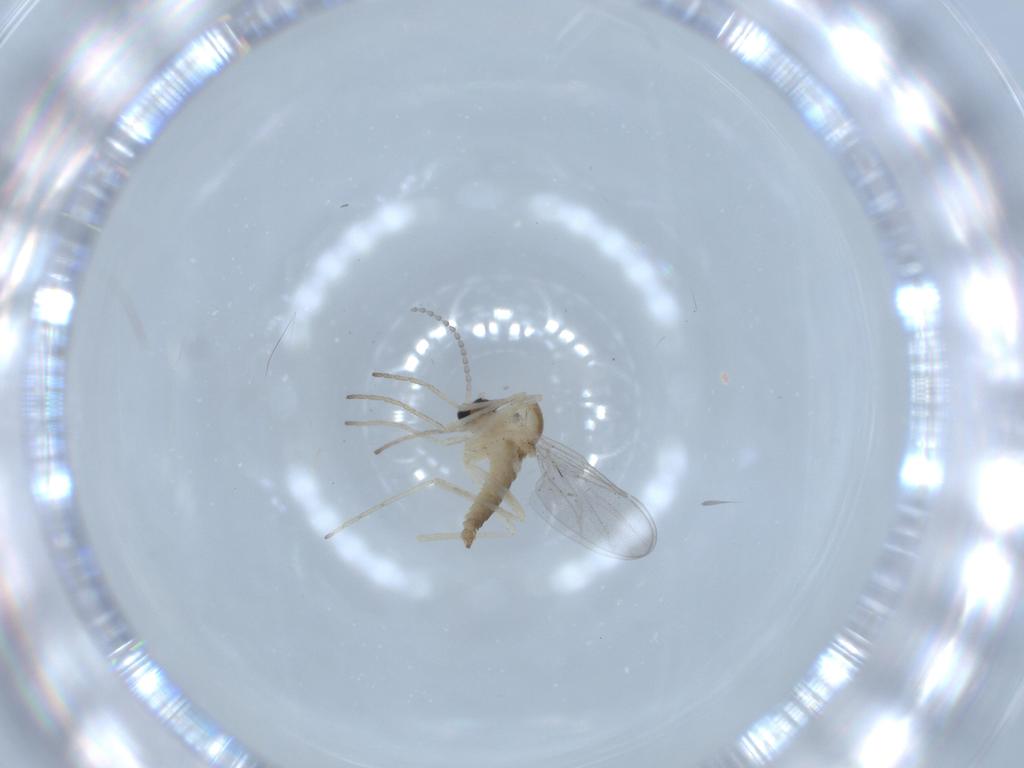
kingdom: Animalia
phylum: Arthropoda
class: Insecta
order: Diptera
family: Cecidomyiidae
